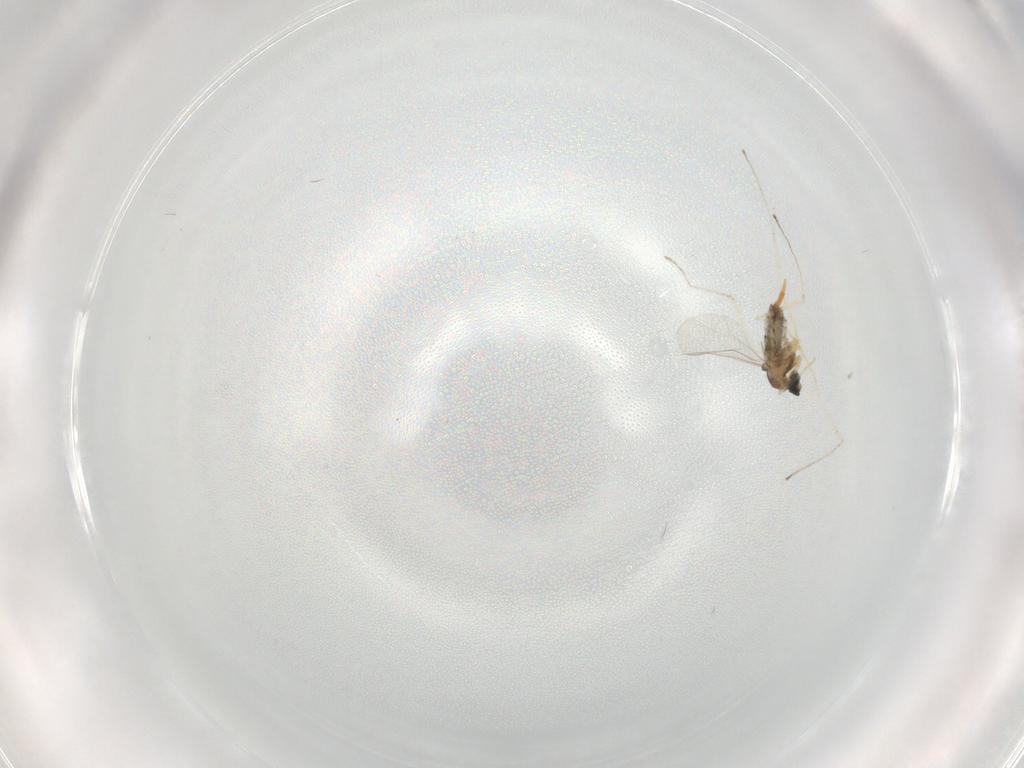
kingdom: Animalia
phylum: Arthropoda
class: Insecta
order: Diptera
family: Cecidomyiidae
